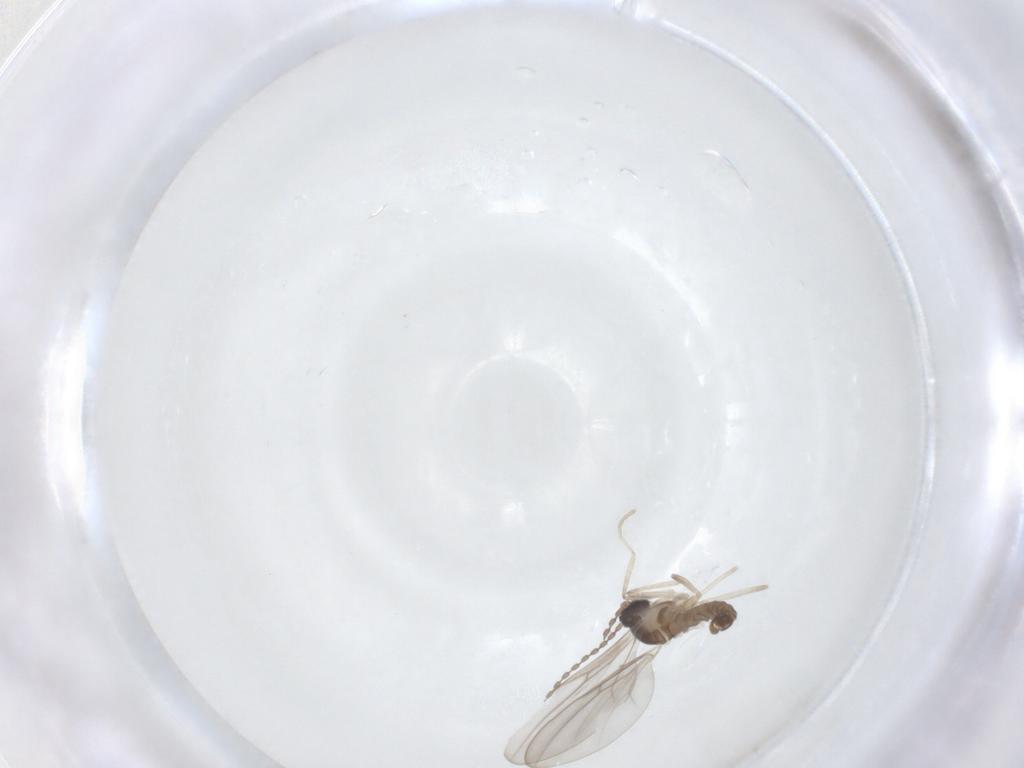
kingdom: Animalia
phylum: Arthropoda
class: Insecta
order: Diptera
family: Cecidomyiidae
